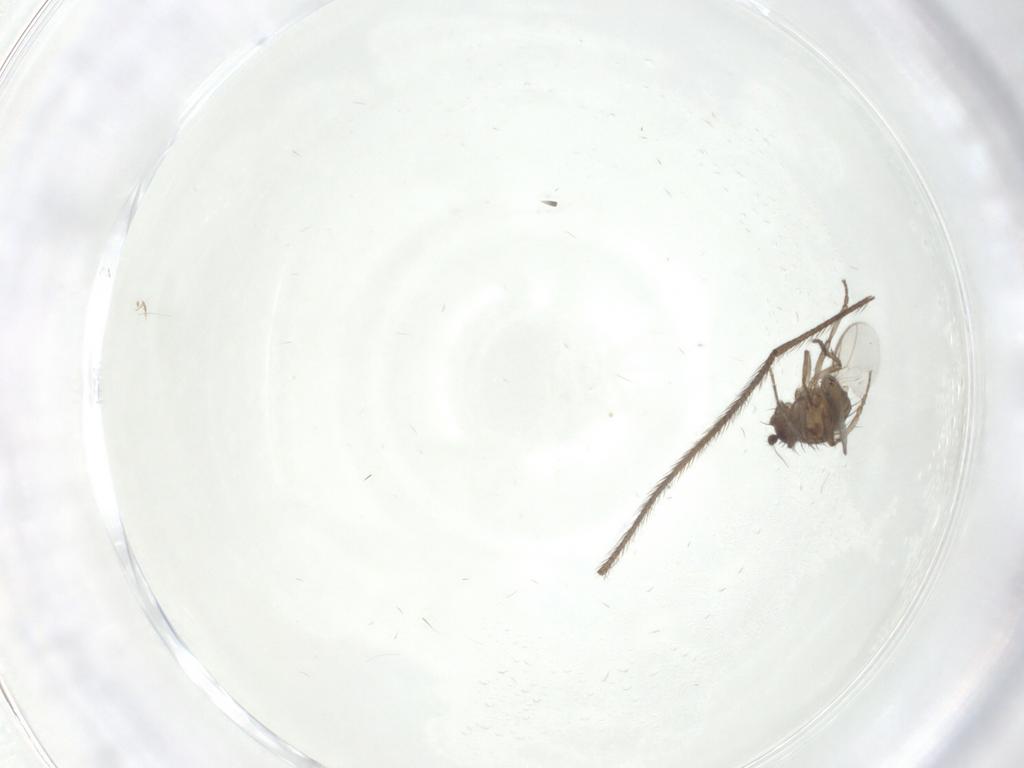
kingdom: Animalia
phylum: Arthropoda
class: Insecta
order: Diptera
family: Sphaeroceridae
